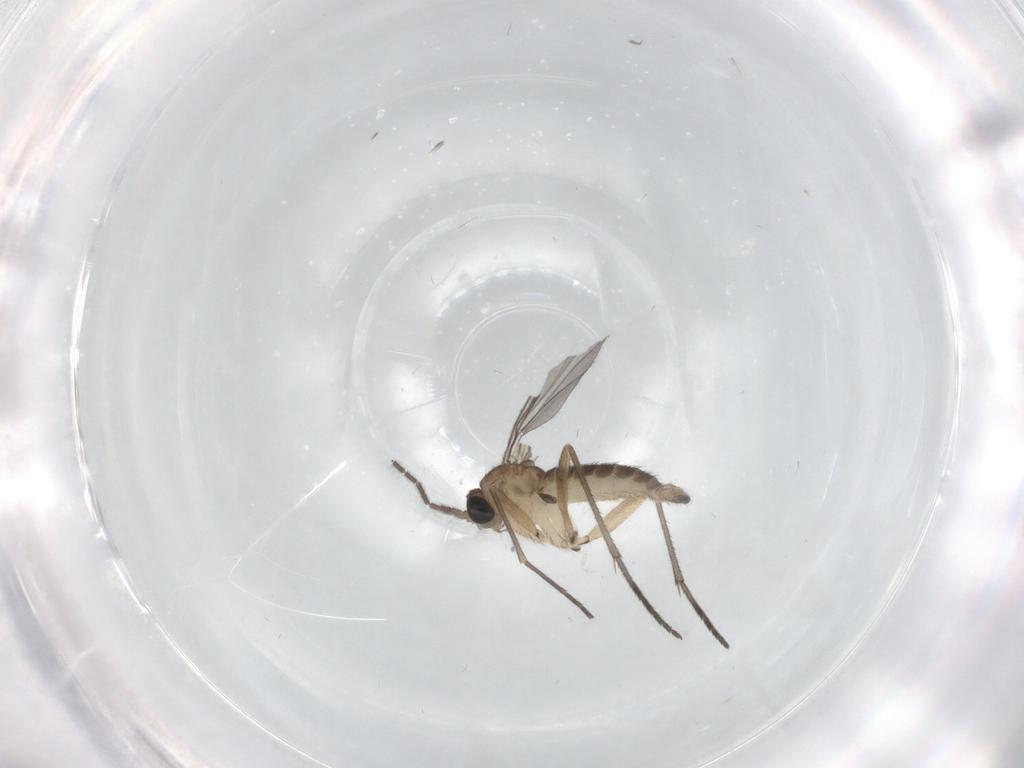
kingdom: Animalia
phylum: Arthropoda
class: Insecta
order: Diptera
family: Sciaridae
